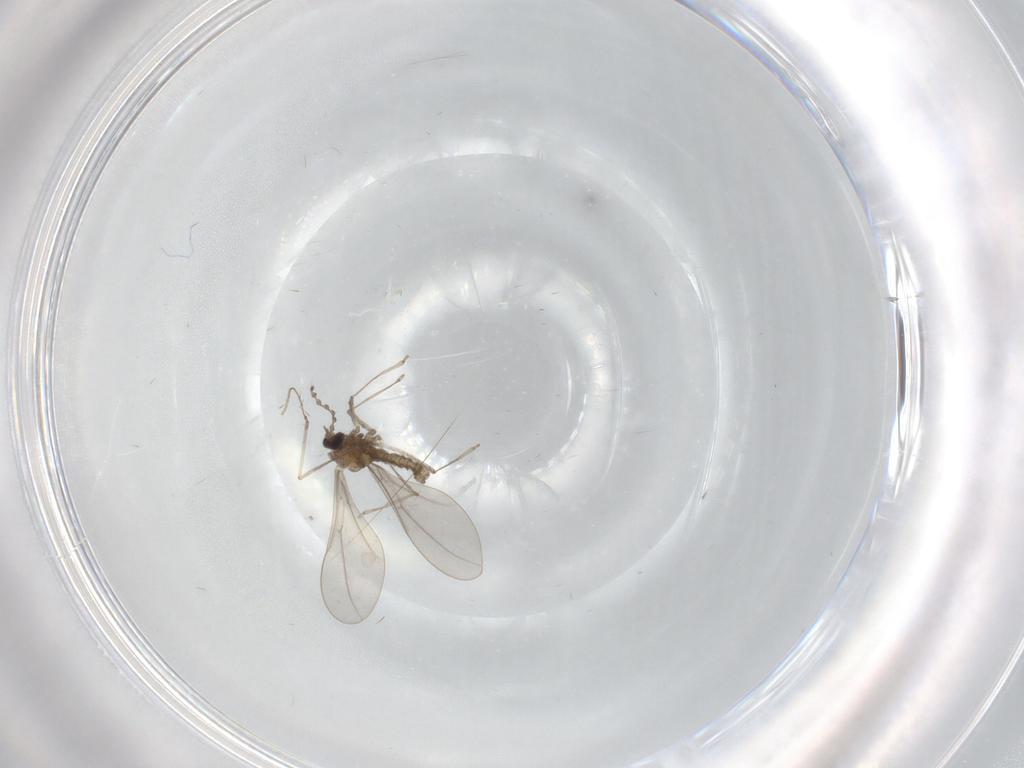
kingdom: Animalia
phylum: Arthropoda
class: Insecta
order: Diptera
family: Cecidomyiidae
